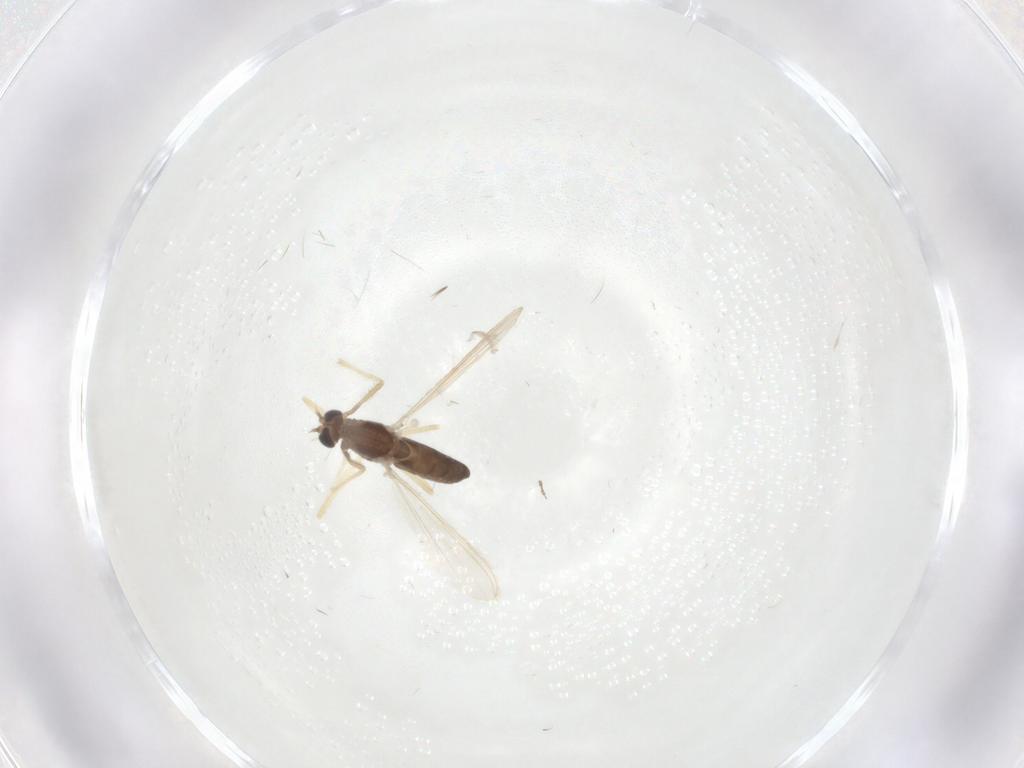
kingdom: Animalia
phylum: Arthropoda
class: Insecta
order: Diptera
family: Chironomidae
